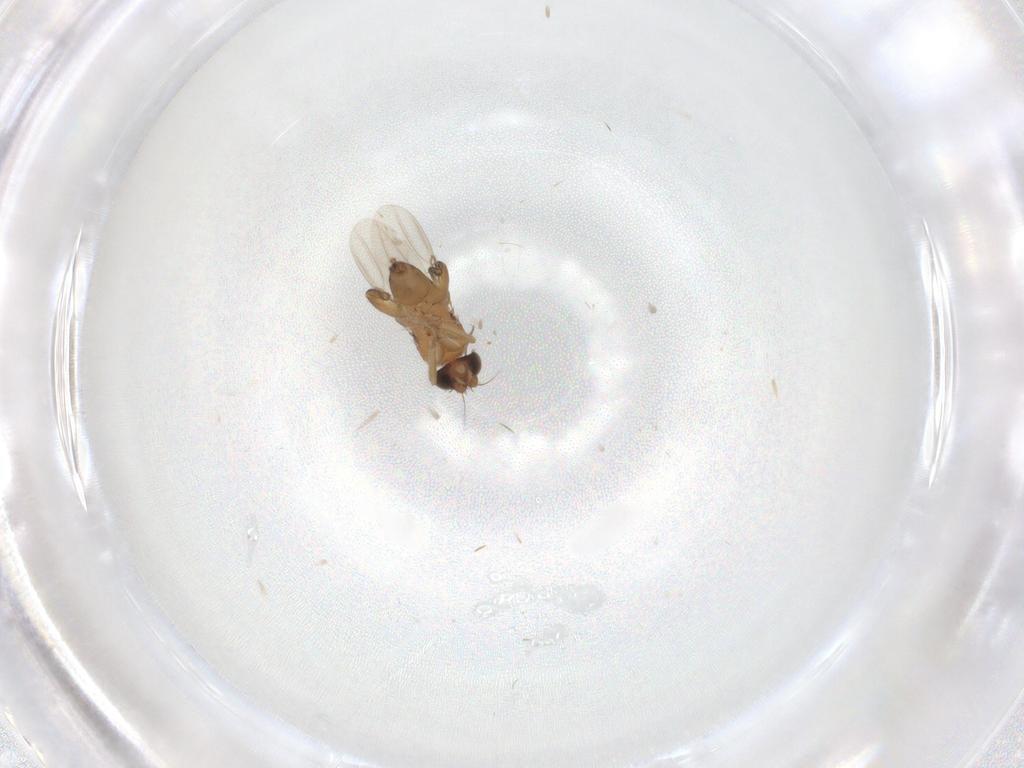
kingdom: Animalia
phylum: Arthropoda
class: Insecta
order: Diptera
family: Phoridae
